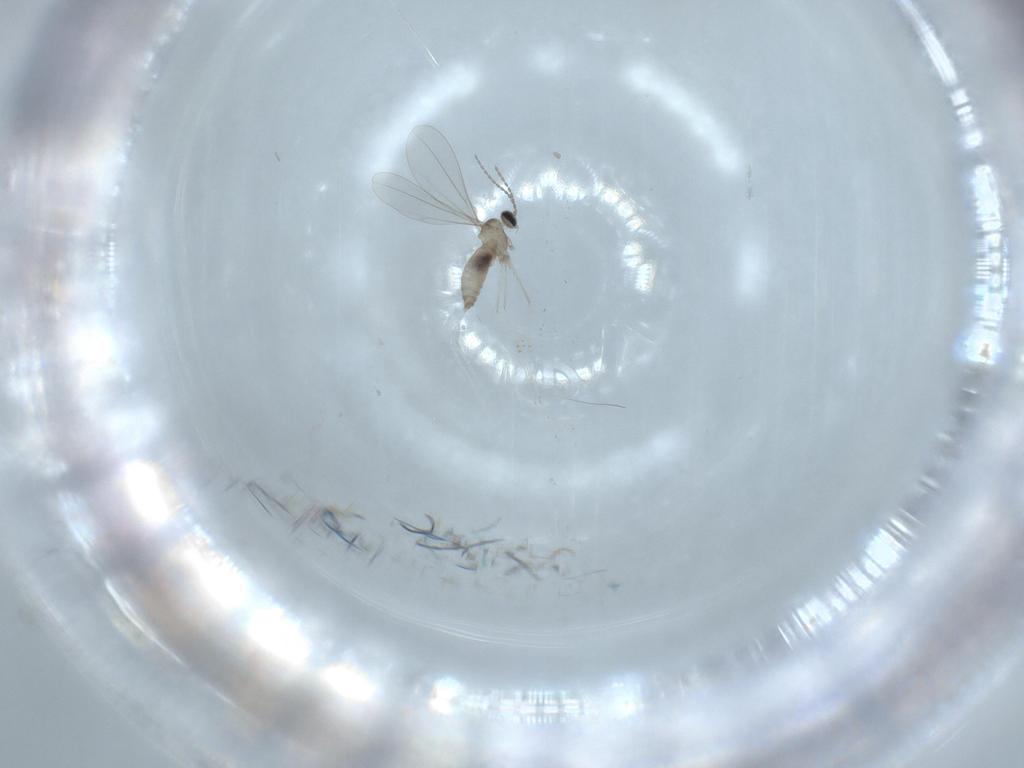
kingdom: Animalia
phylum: Arthropoda
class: Insecta
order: Diptera
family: Cecidomyiidae
